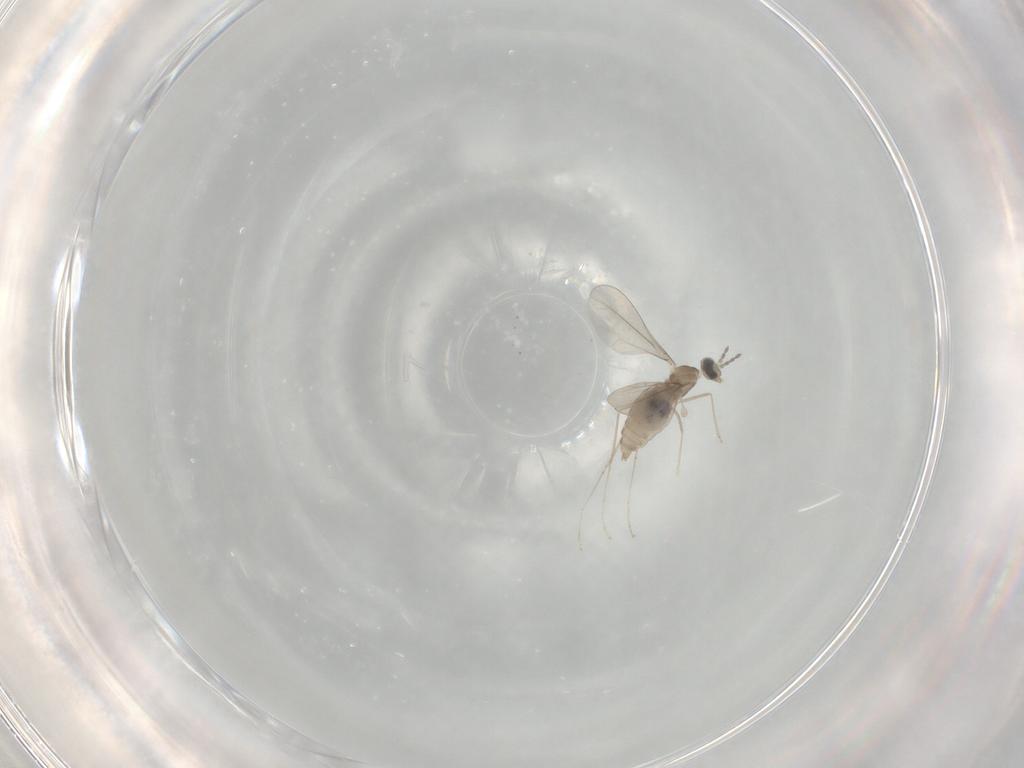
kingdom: Animalia
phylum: Arthropoda
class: Insecta
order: Diptera
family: Cecidomyiidae
